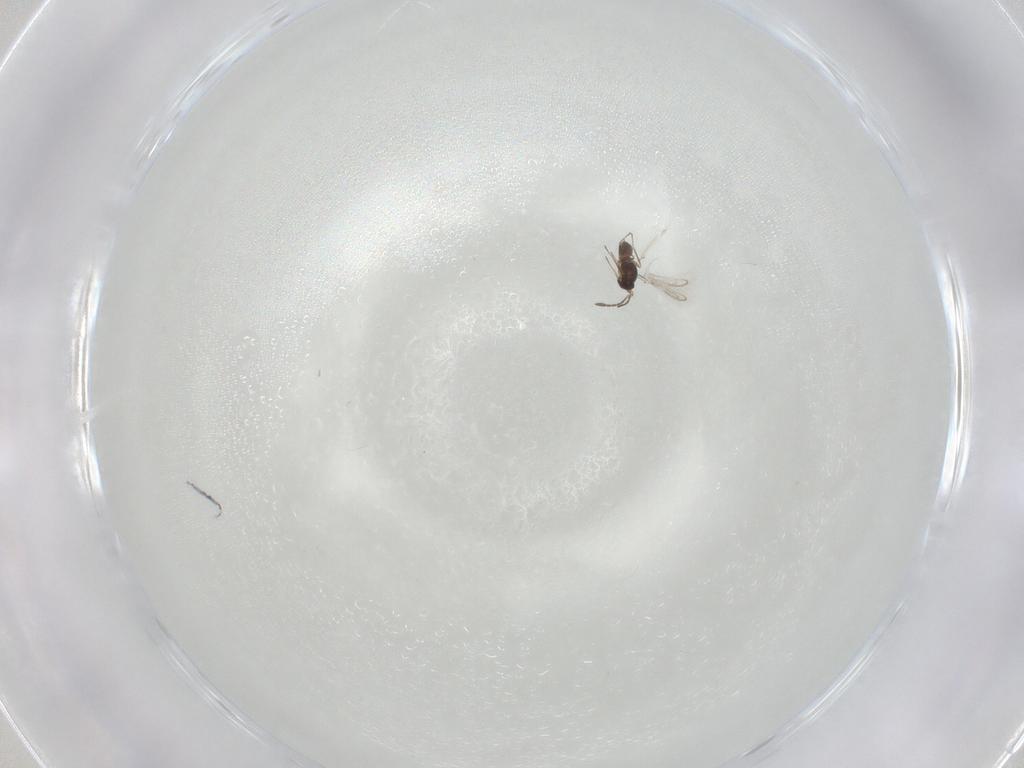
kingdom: Animalia
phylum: Arthropoda
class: Insecta
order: Hymenoptera
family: Mymaridae
